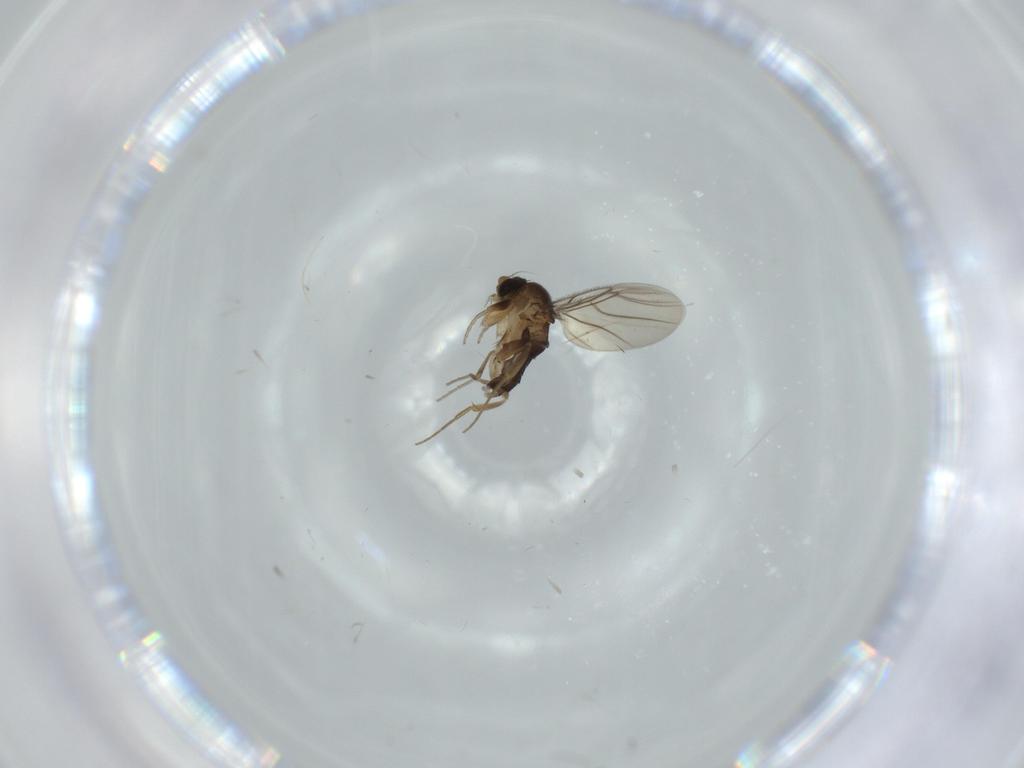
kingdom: Animalia
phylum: Arthropoda
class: Insecta
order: Diptera
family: Phoridae
